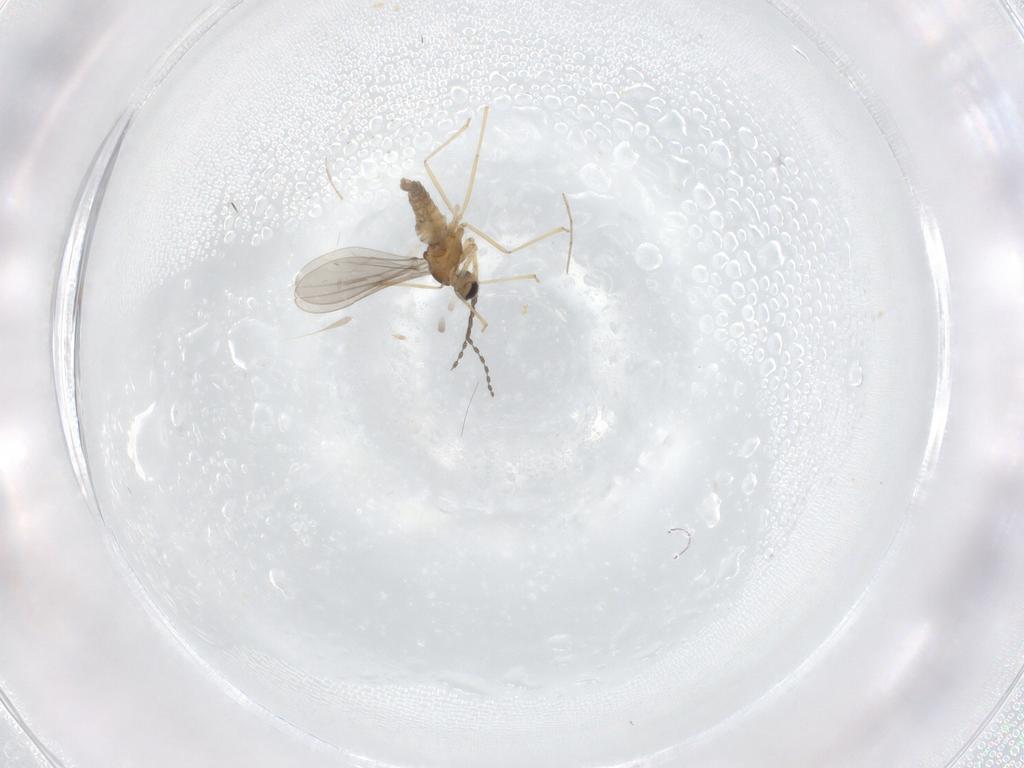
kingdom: Animalia
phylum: Arthropoda
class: Insecta
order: Diptera
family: Cecidomyiidae
